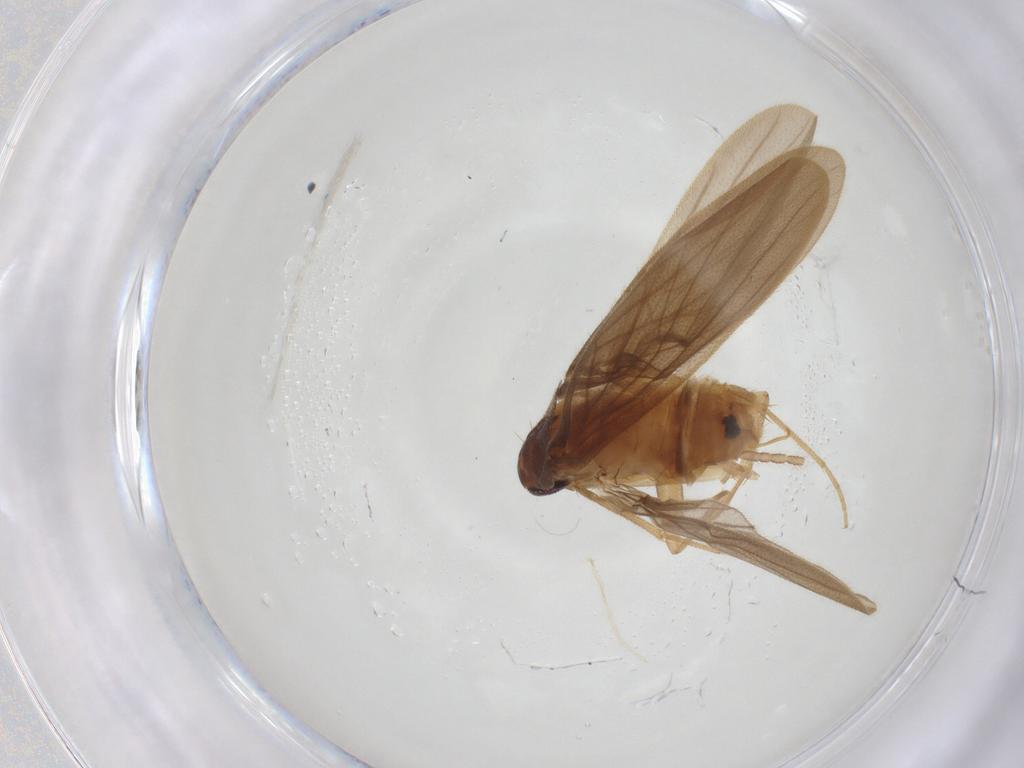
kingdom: Animalia
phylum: Arthropoda
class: Insecta
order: Blattodea
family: Nocticolidae
